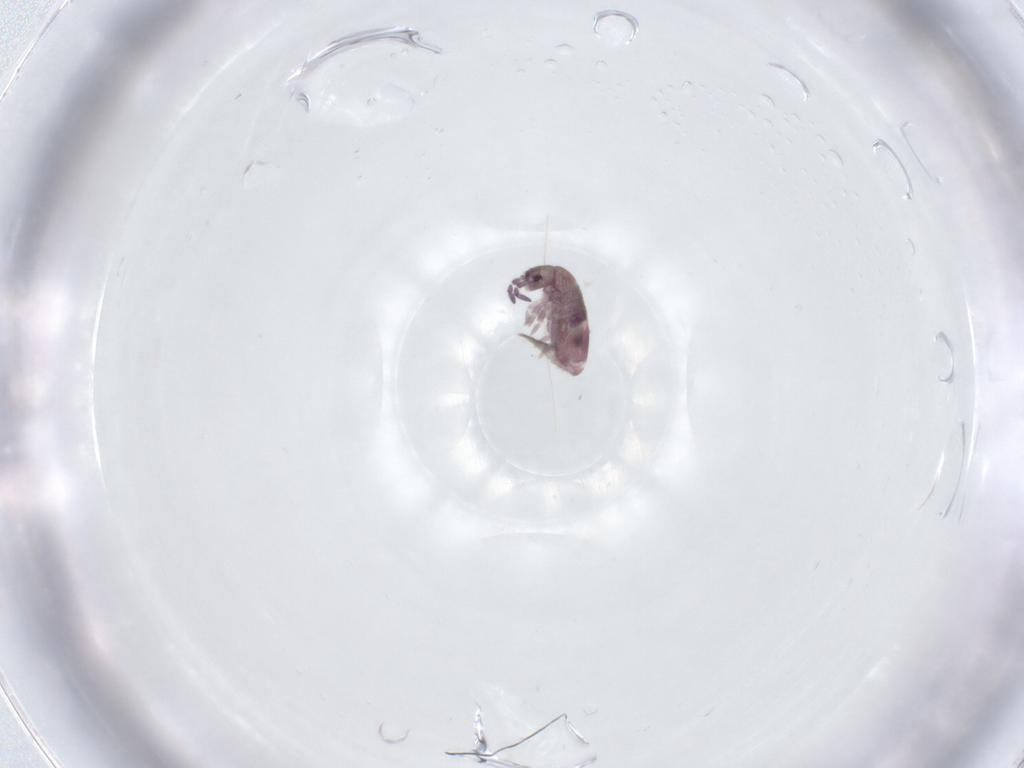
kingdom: Animalia
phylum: Arthropoda
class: Collembola
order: Entomobryomorpha
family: Entomobryidae
